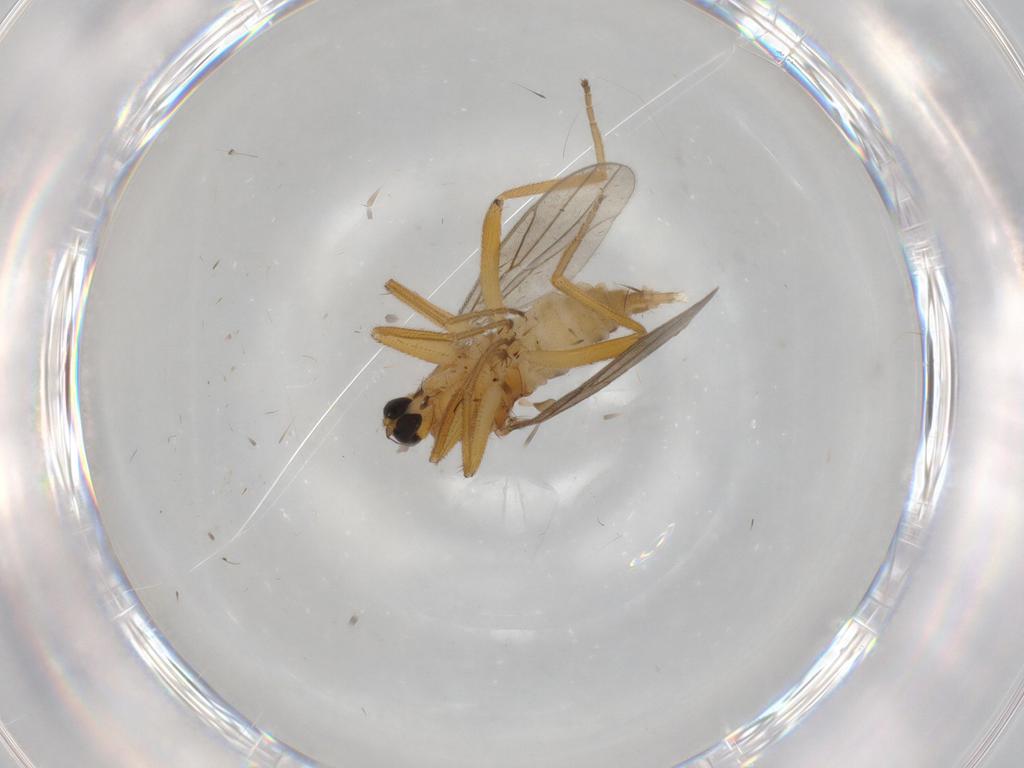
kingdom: Animalia
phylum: Arthropoda
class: Insecta
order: Diptera
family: Hybotidae
